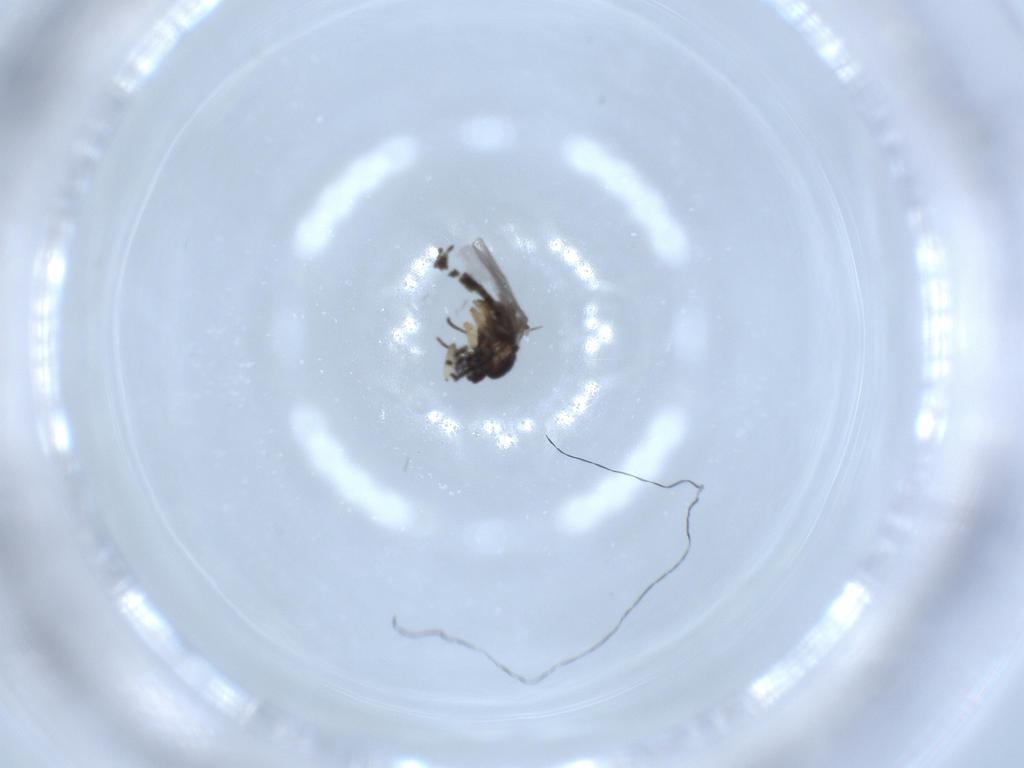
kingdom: Animalia
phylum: Arthropoda
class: Insecta
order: Diptera
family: Sciaridae
